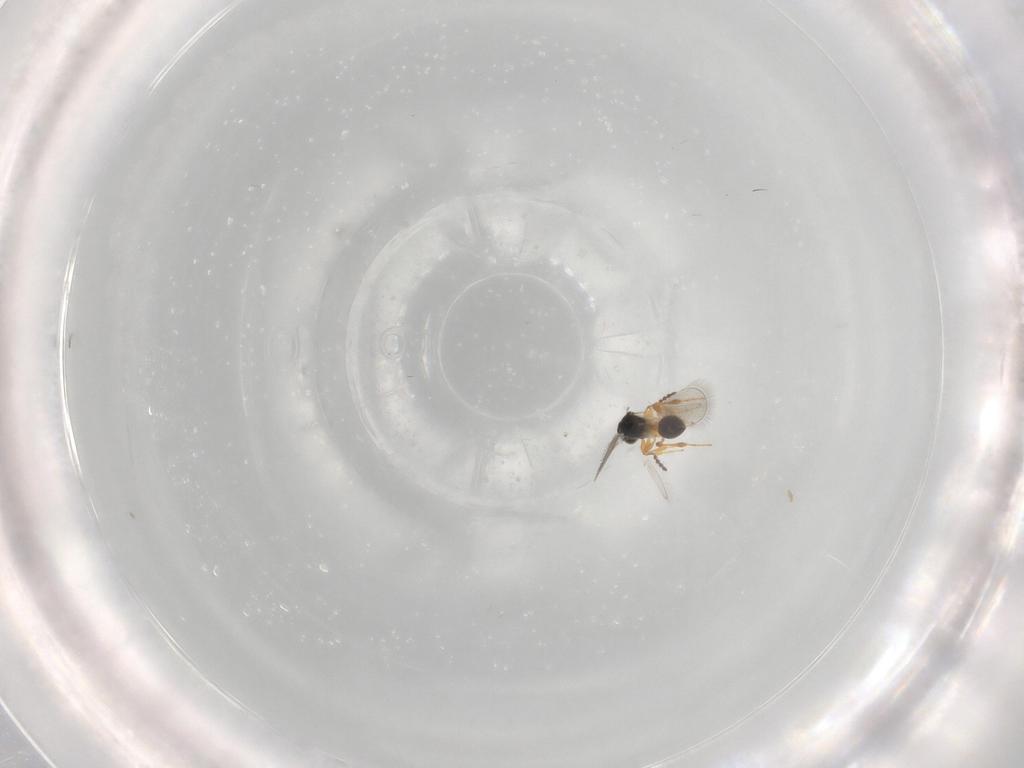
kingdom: Animalia
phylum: Arthropoda
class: Insecta
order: Hymenoptera
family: Platygastridae
